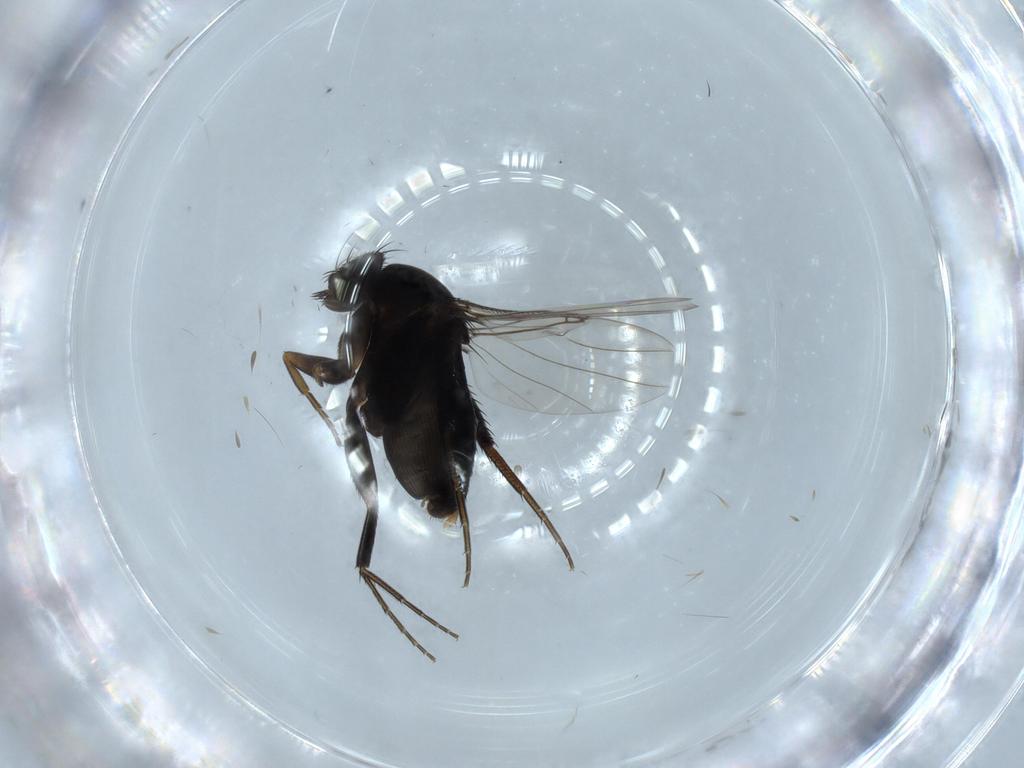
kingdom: Animalia
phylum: Arthropoda
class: Insecta
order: Diptera
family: Phoridae
